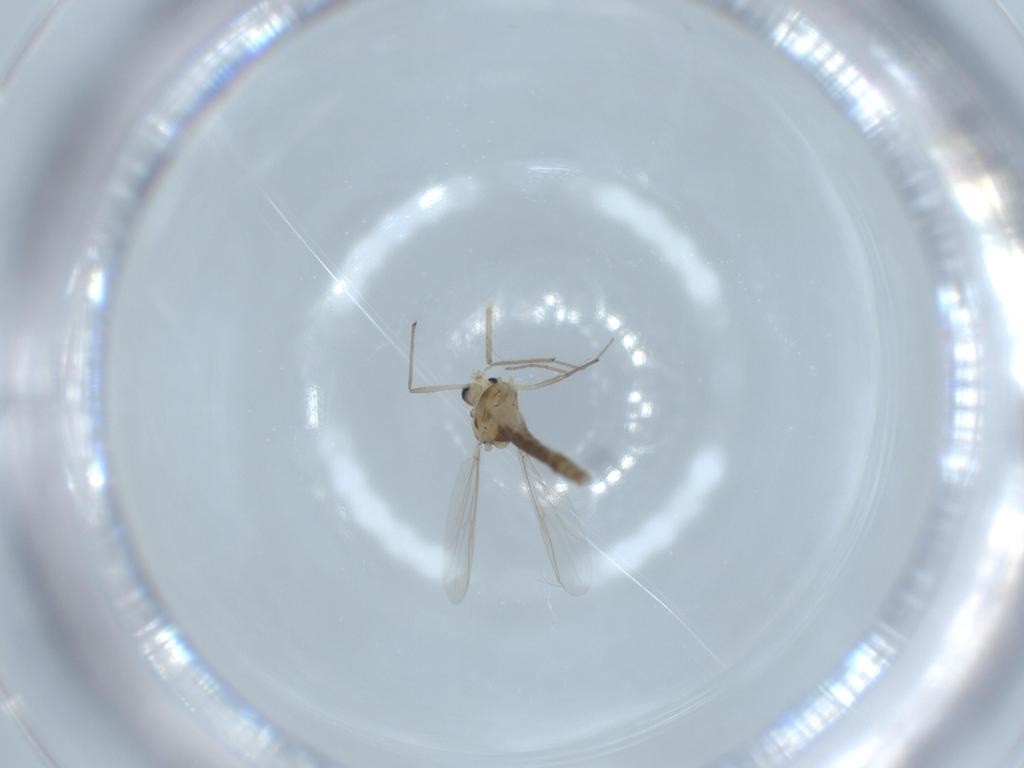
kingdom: Animalia
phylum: Arthropoda
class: Insecta
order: Diptera
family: Chironomidae
